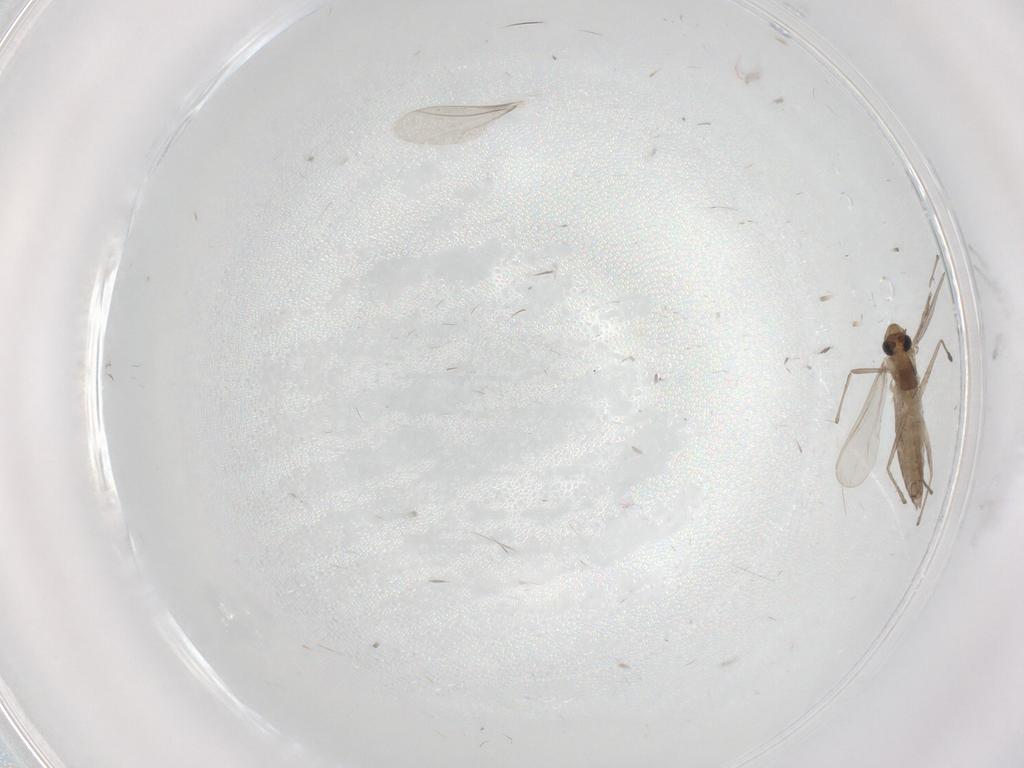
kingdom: Animalia
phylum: Arthropoda
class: Insecta
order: Diptera
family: Chironomidae
